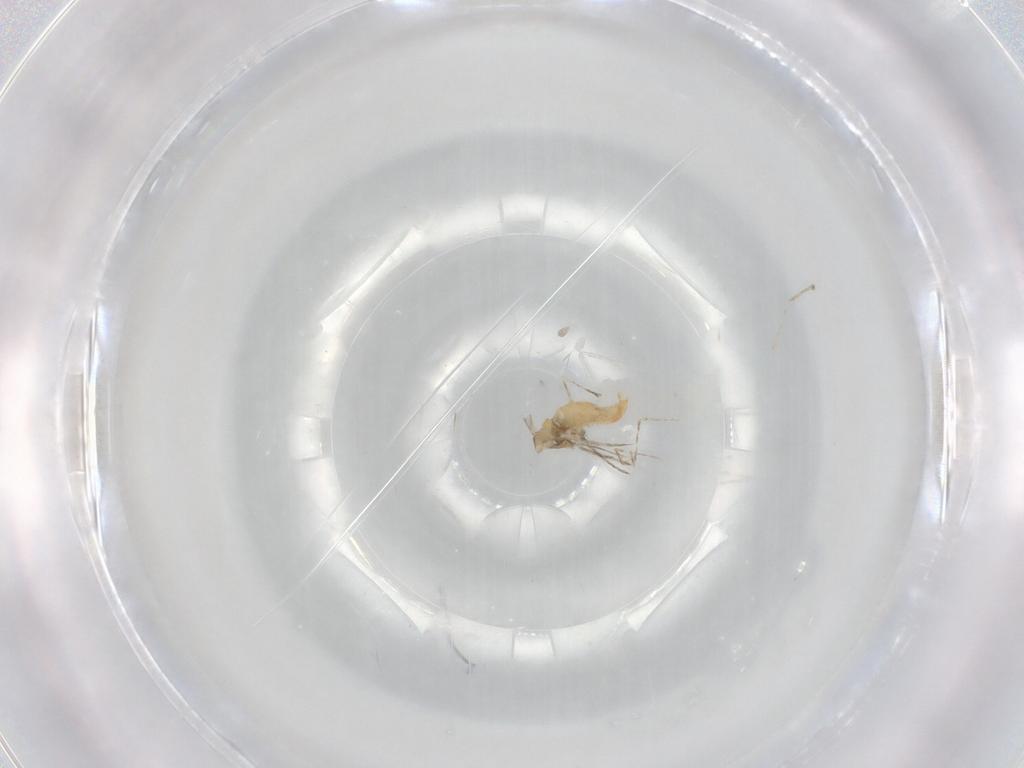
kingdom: Animalia
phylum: Arthropoda
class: Insecta
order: Diptera
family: Cecidomyiidae
